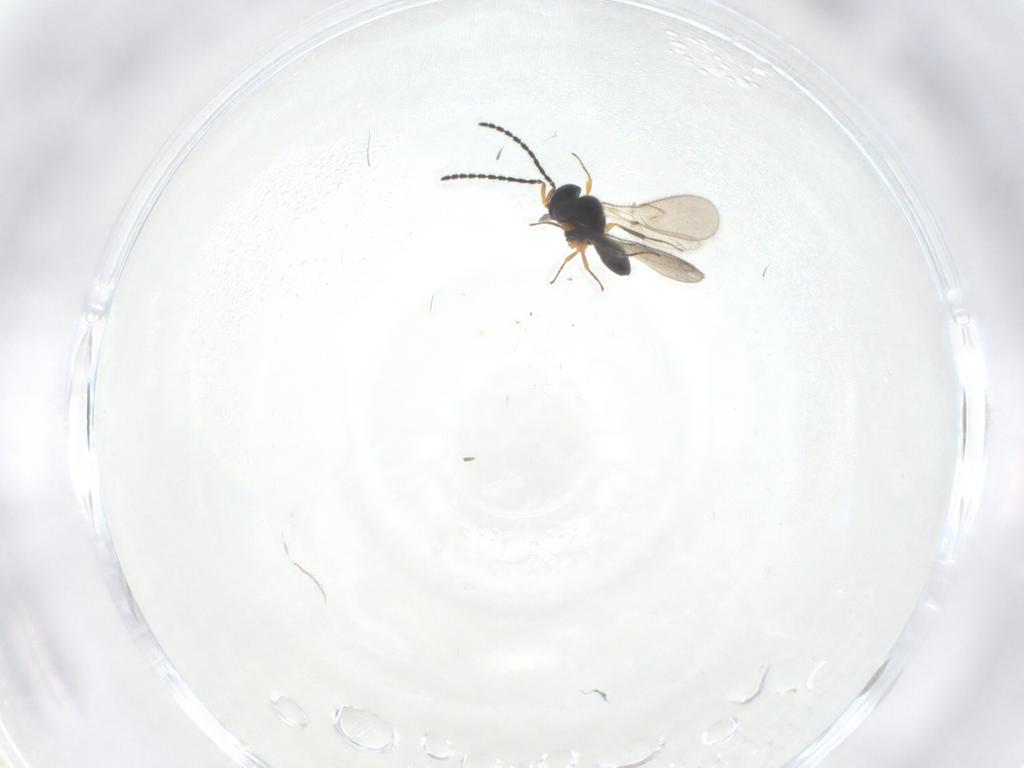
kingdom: Animalia
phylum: Arthropoda
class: Insecta
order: Hymenoptera
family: Scelionidae
